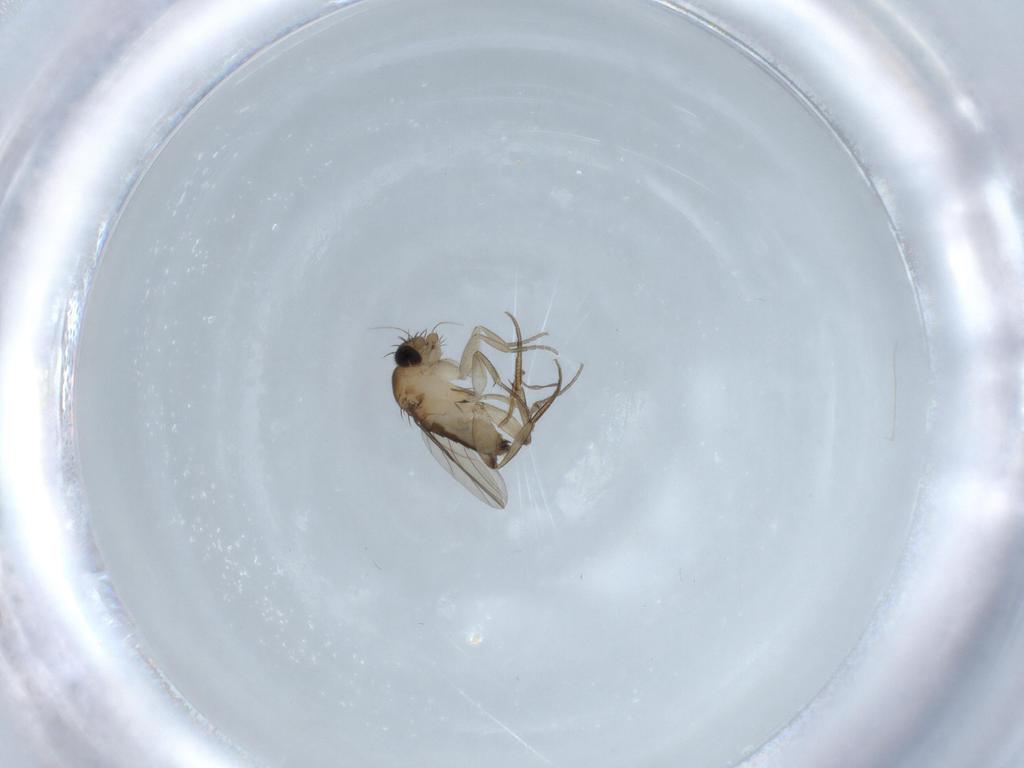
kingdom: Animalia
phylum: Arthropoda
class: Insecta
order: Diptera
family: Phoridae
